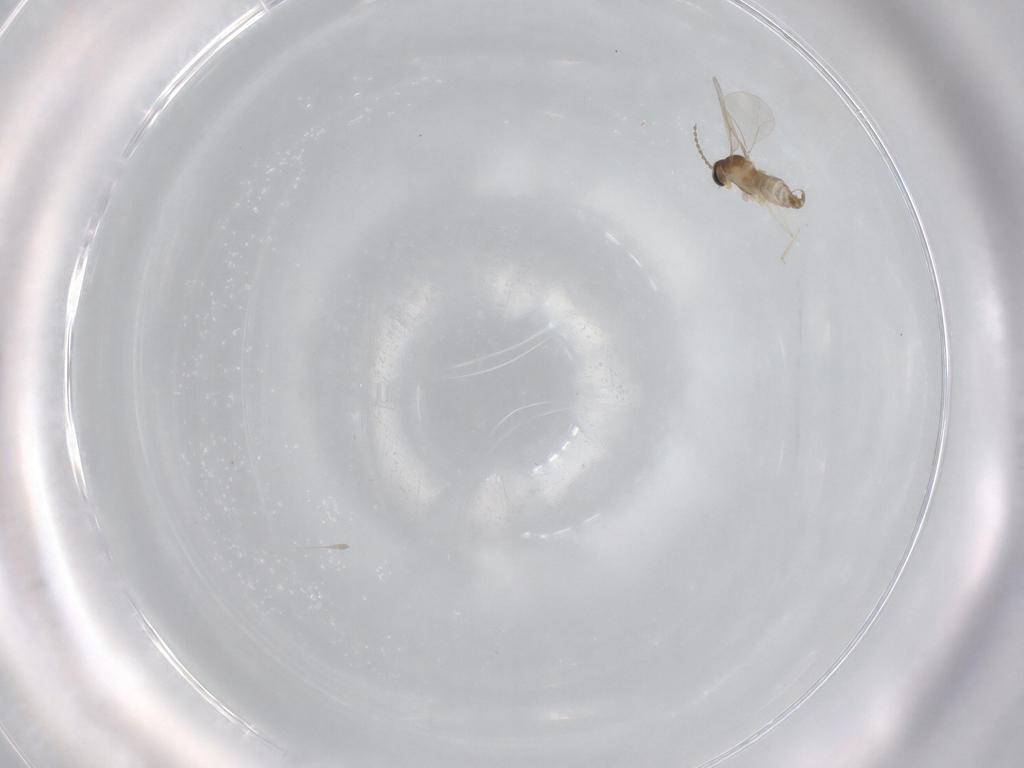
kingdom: Animalia
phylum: Arthropoda
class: Insecta
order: Diptera
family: Cecidomyiidae
